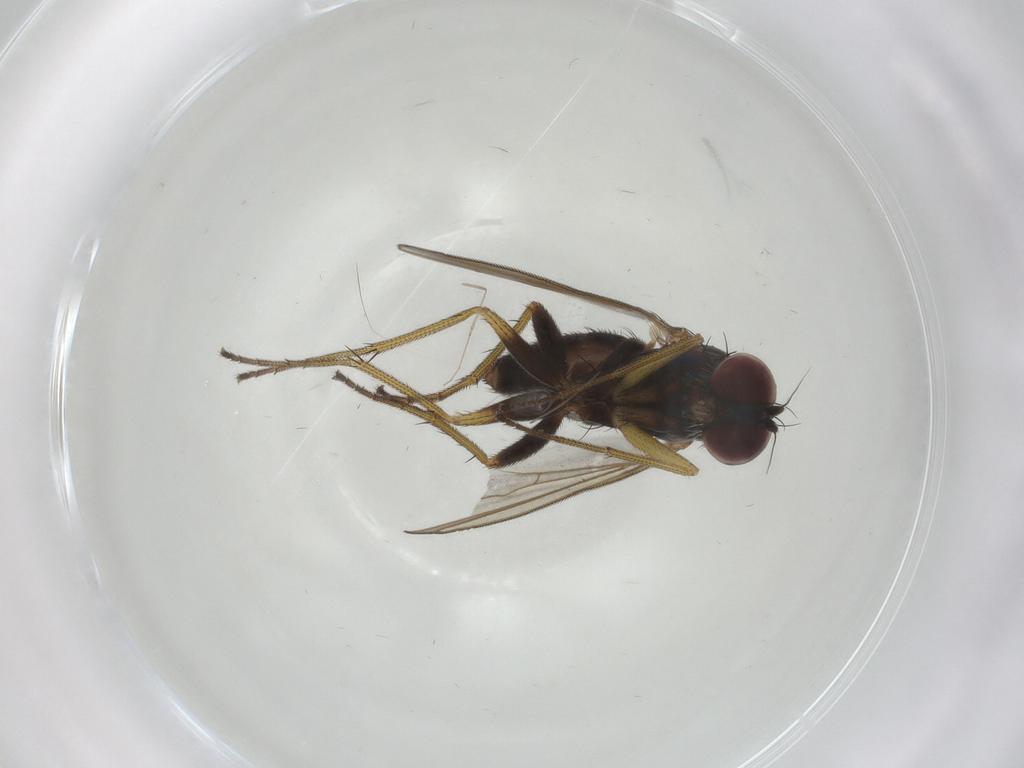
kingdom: Animalia
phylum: Arthropoda
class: Insecta
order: Diptera
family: Dolichopodidae
